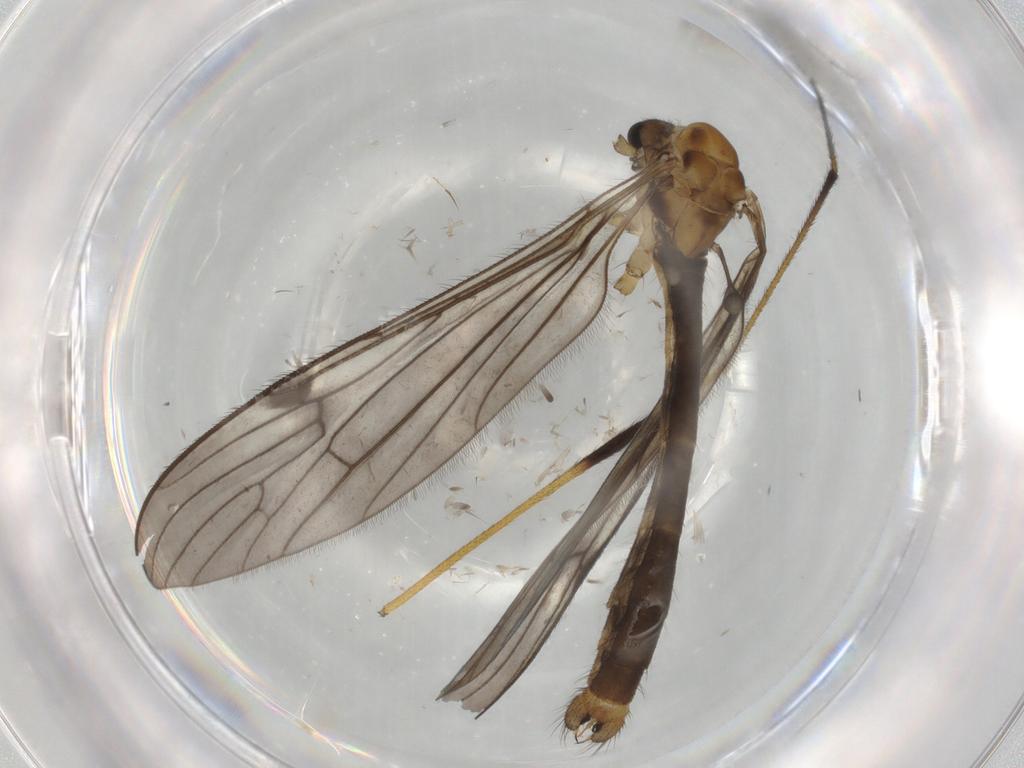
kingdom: Animalia
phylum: Arthropoda
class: Insecta
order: Diptera
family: Limoniidae
